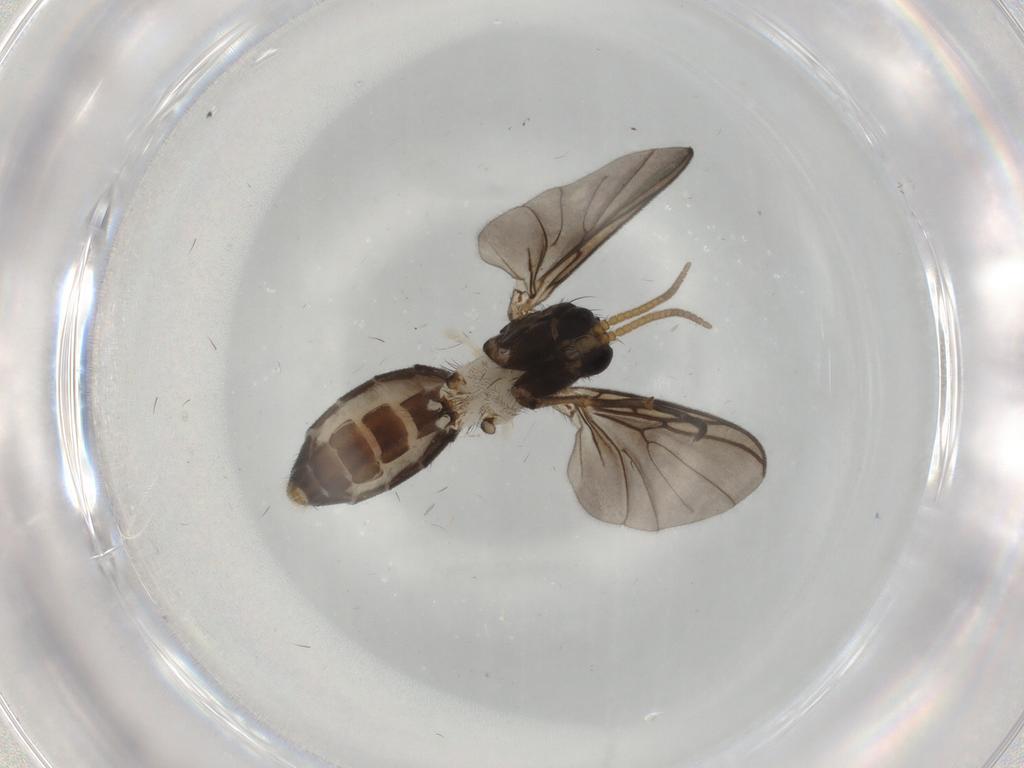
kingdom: Animalia
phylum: Arthropoda
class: Insecta
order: Diptera
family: Mycetophilidae
